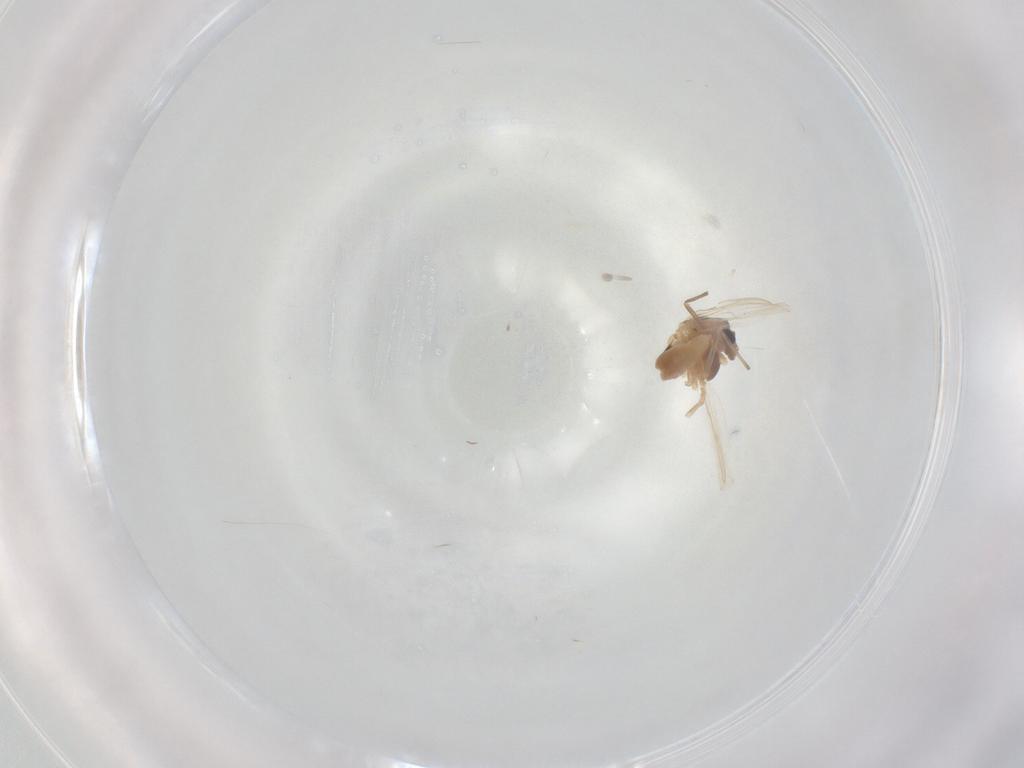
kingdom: Animalia
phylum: Arthropoda
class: Insecta
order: Diptera
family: Chironomidae
